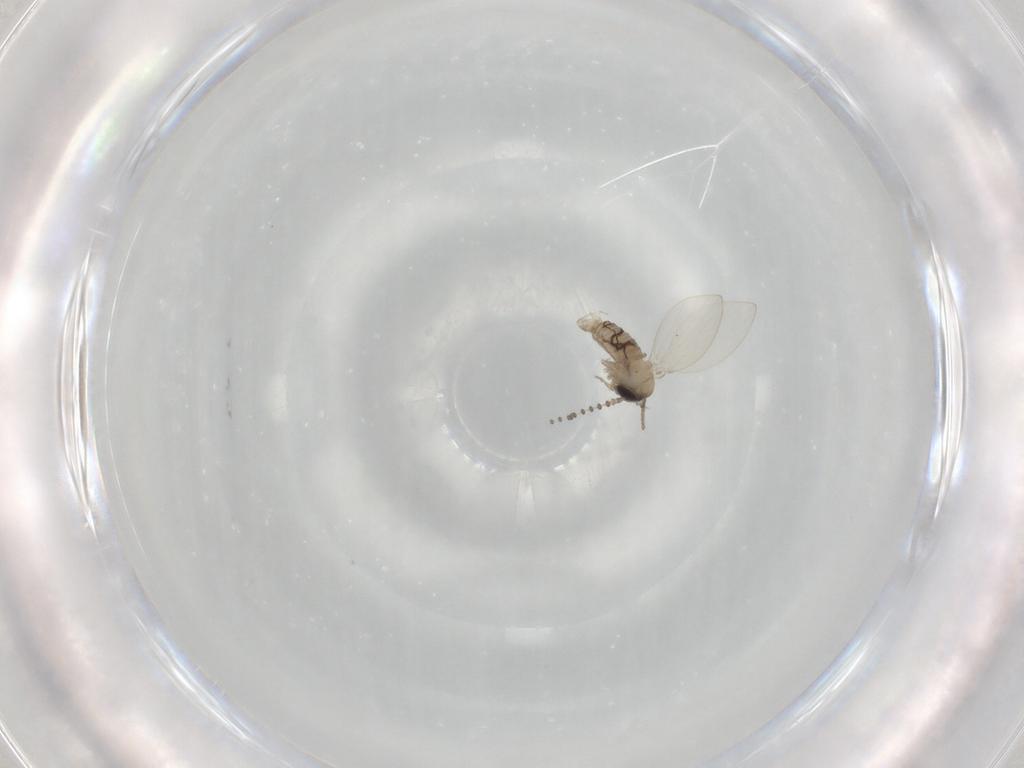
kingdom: Animalia
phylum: Arthropoda
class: Insecta
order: Diptera
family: Psychodidae
